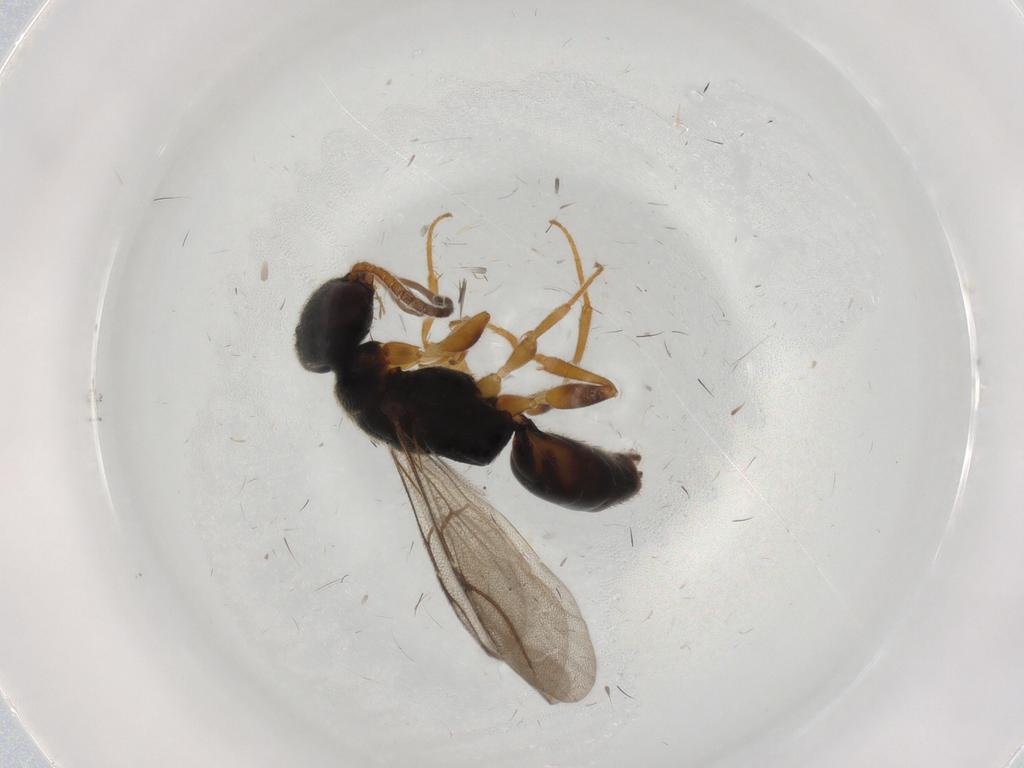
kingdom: Animalia
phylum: Arthropoda
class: Insecta
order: Hymenoptera
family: Bethylidae
